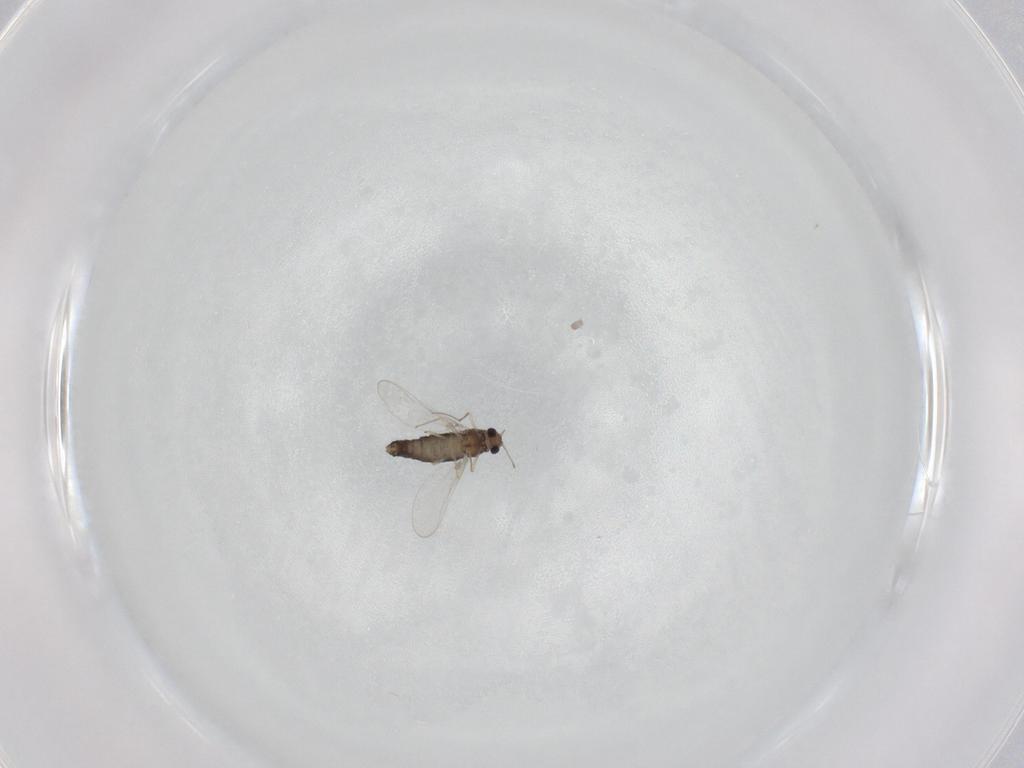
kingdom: Animalia
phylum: Arthropoda
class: Insecta
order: Diptera
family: Chironomidae
